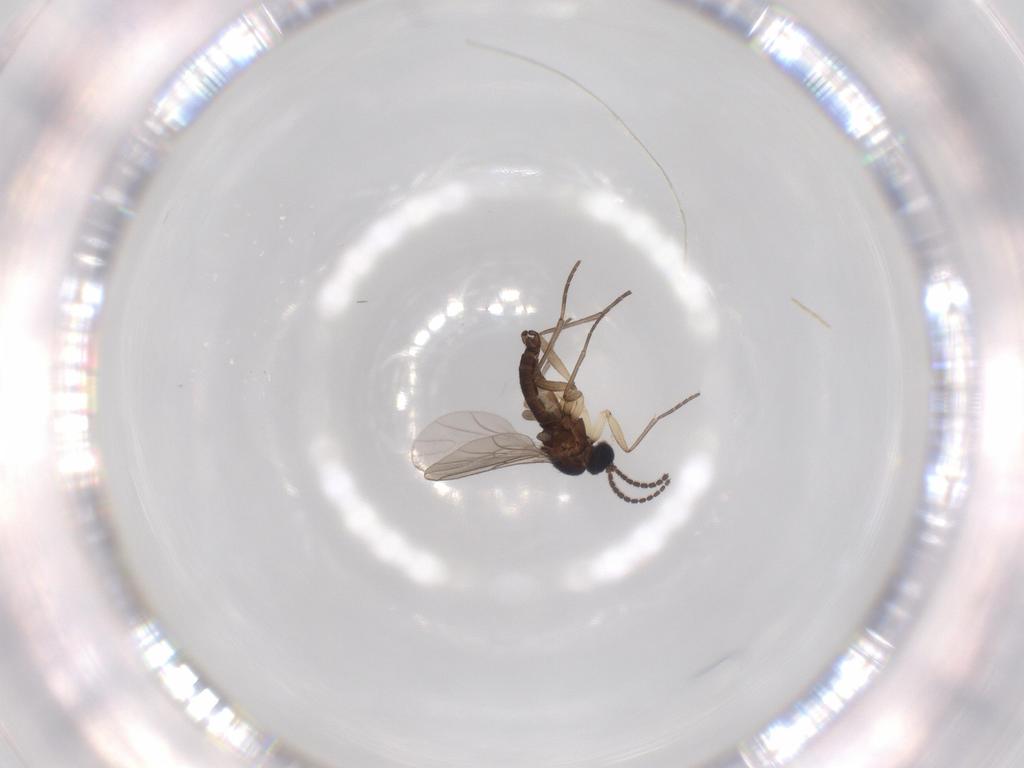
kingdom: Animalia
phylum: Arthropoda
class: Insecta
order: Diptera
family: Sciaridae
